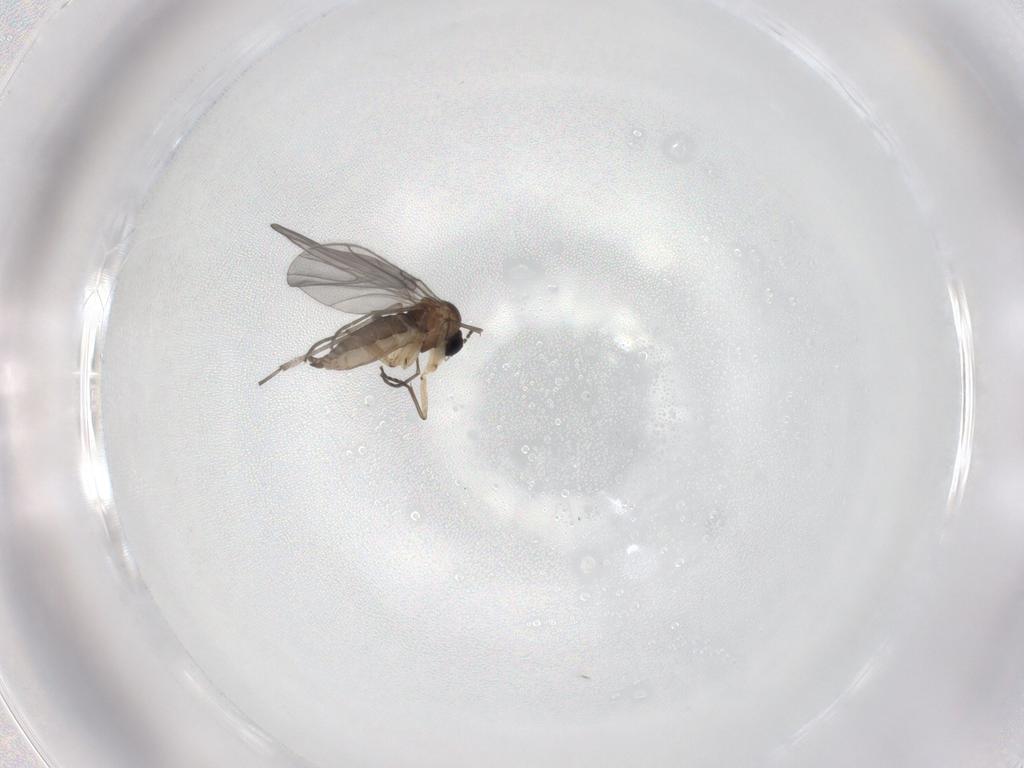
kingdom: Animalia
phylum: Arthropoda
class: Insecta
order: Diptera
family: Sciaridae
